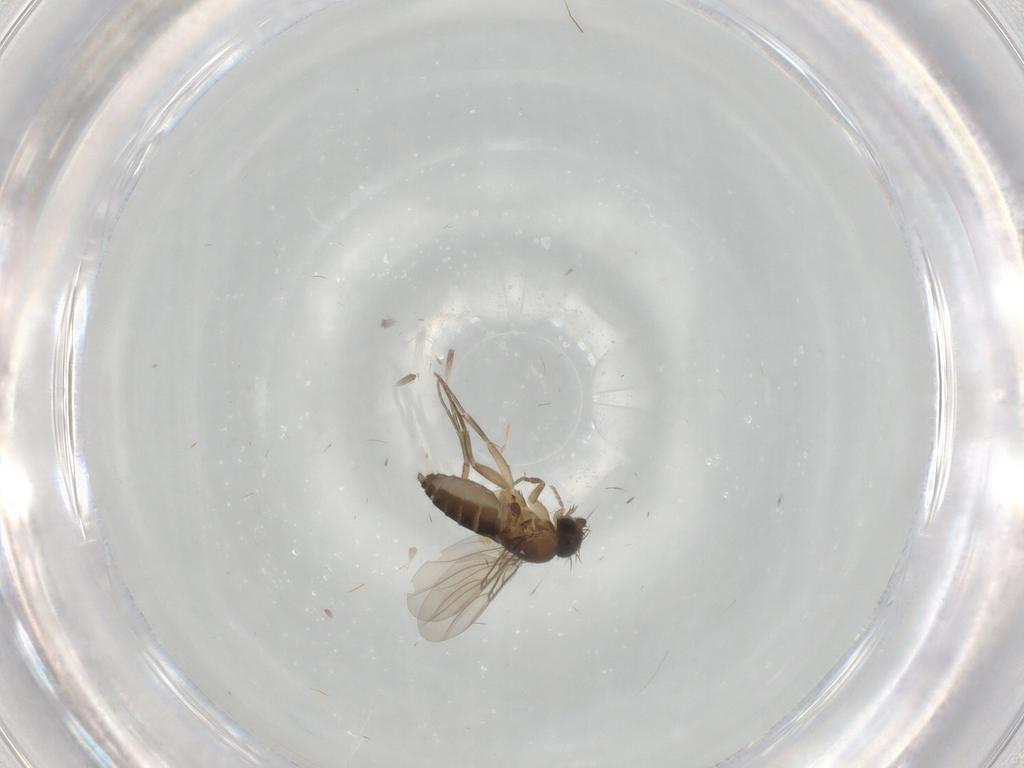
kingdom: Animalia
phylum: Arthropoda
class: Insecta
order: Diptera
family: Phoridae
